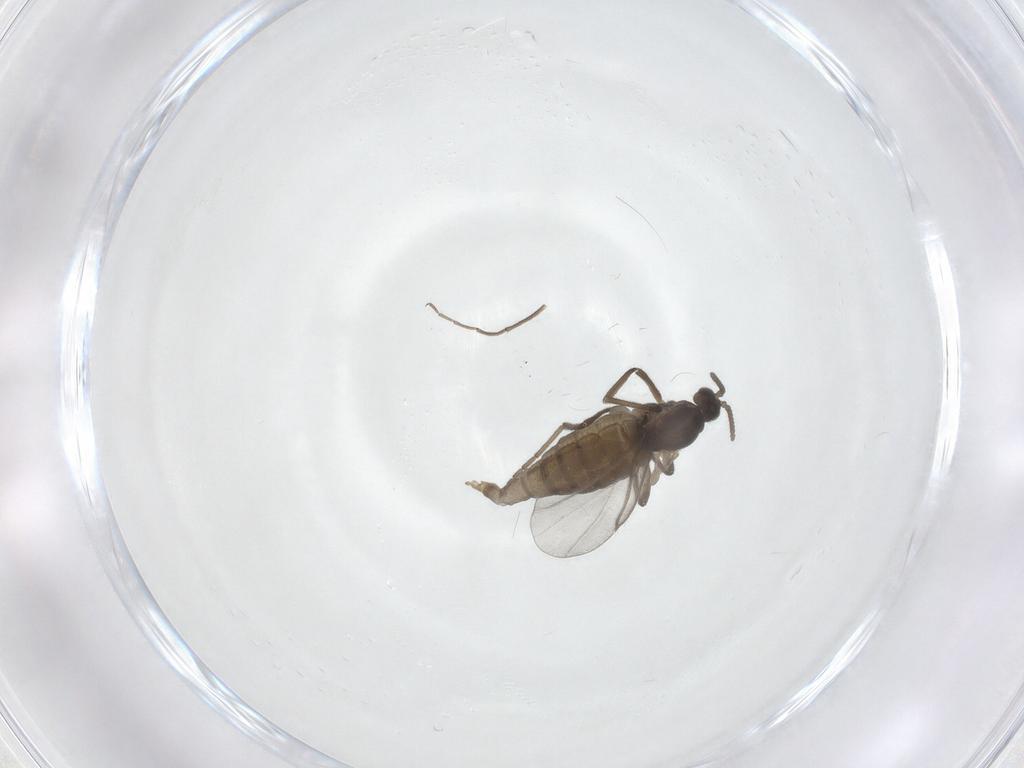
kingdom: Animalia
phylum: Arthropoda
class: Insecta
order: Diptera
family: Cecidomyiidae
